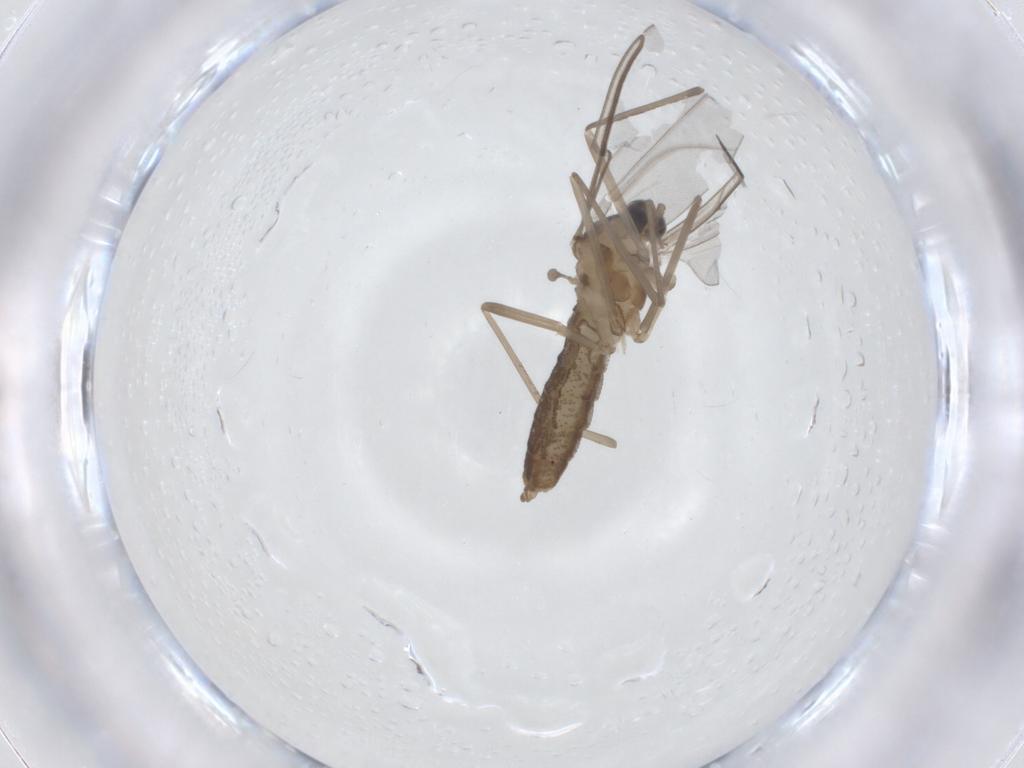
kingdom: Animalia
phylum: Arthropoda
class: Insecta
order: Diptera
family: Cecidomyiidae
